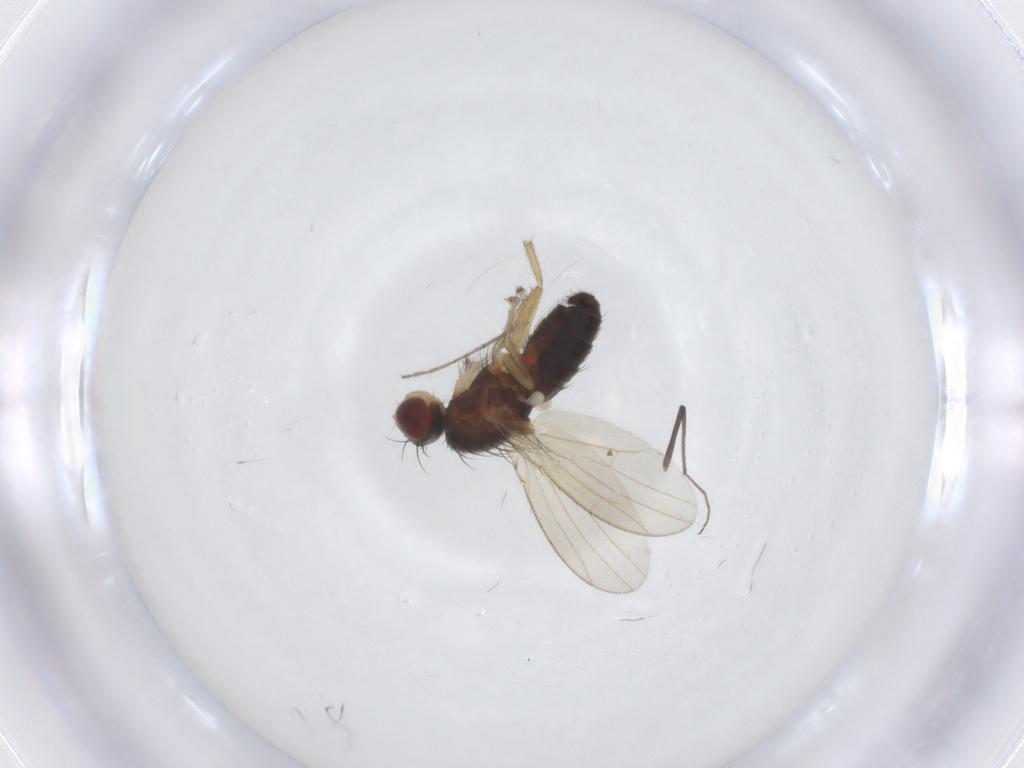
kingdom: Animalia
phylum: Arthropoda
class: Insecta
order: Diptera
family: Heleomyzidae
